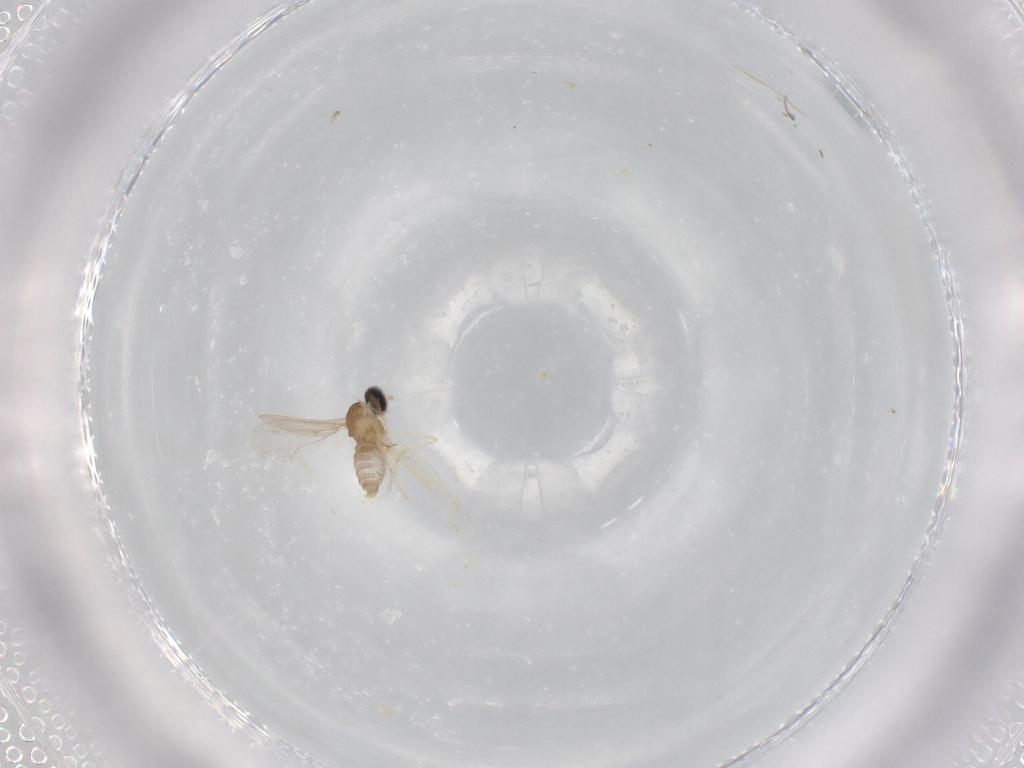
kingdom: Animalia
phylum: Arthropoda
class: Insecta
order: Diptera
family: Cecidomyiidae
